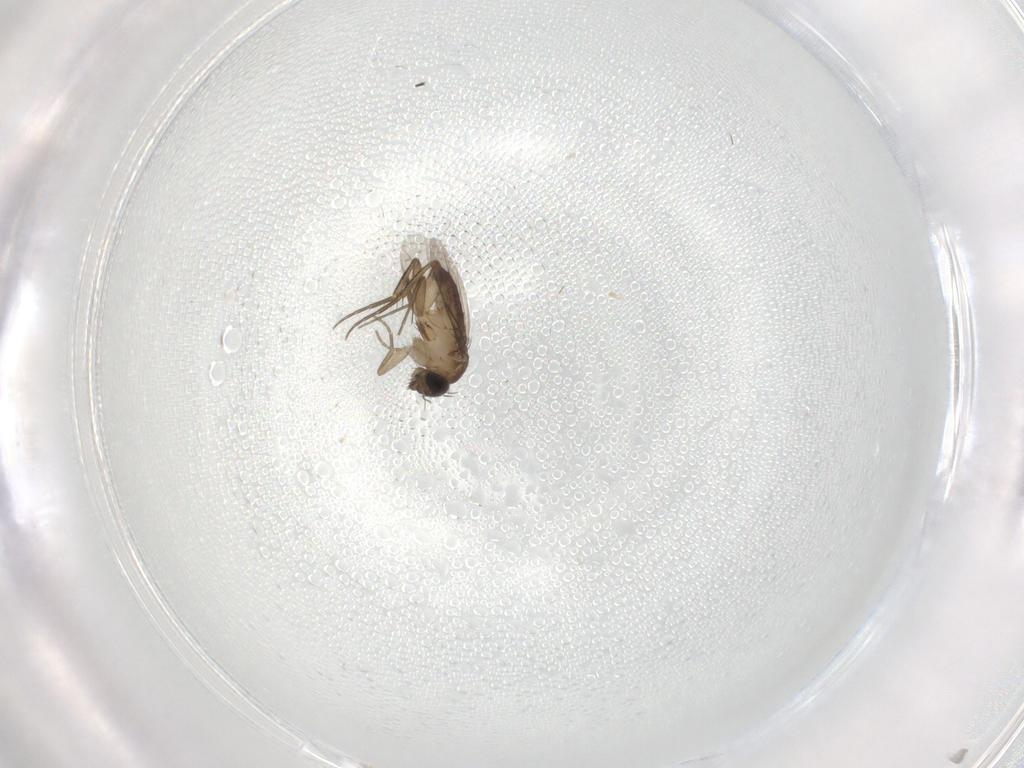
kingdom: Animalia
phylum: Arthropoda
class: Insecta
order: Diptera
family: Phoridae
